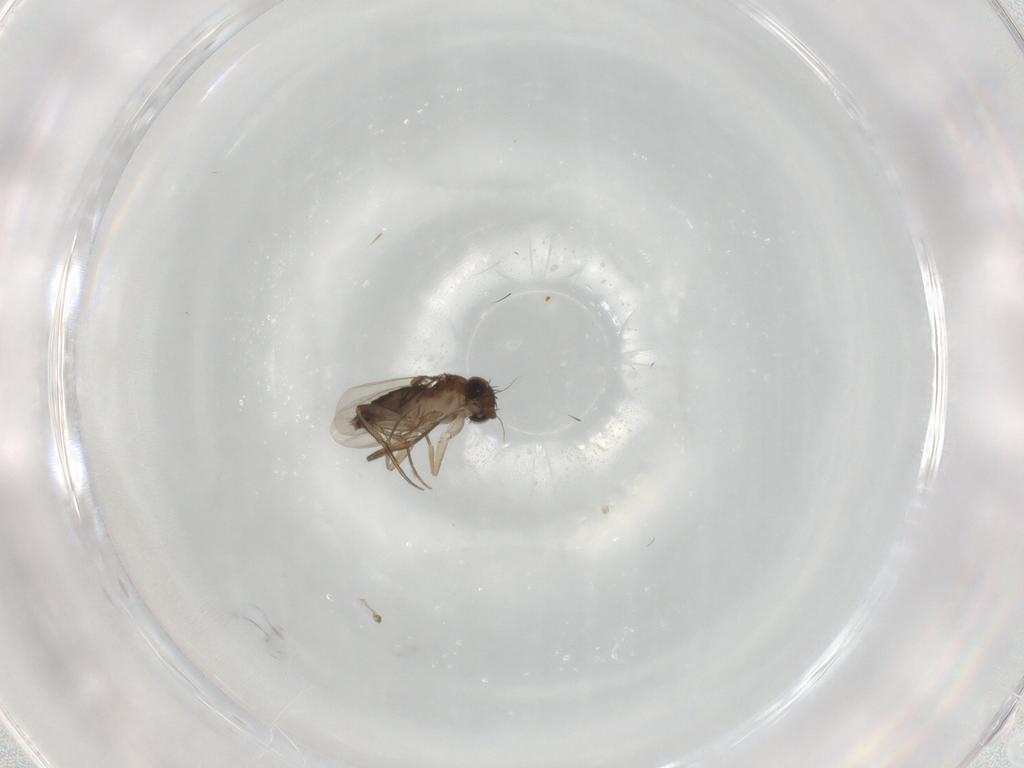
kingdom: Animalia
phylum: Arthropoda
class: Insecta
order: Diptera
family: Phoridae
